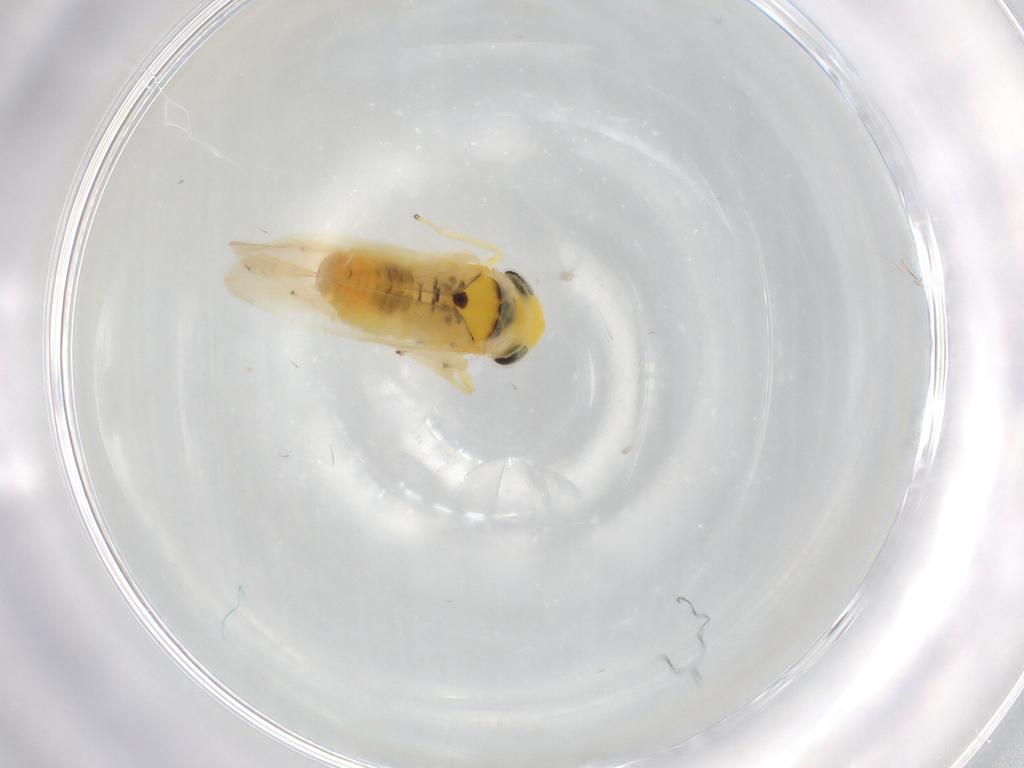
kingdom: Animalia
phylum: Arthropoda
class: Insecta
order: Hemiptera
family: Cicadellidae
